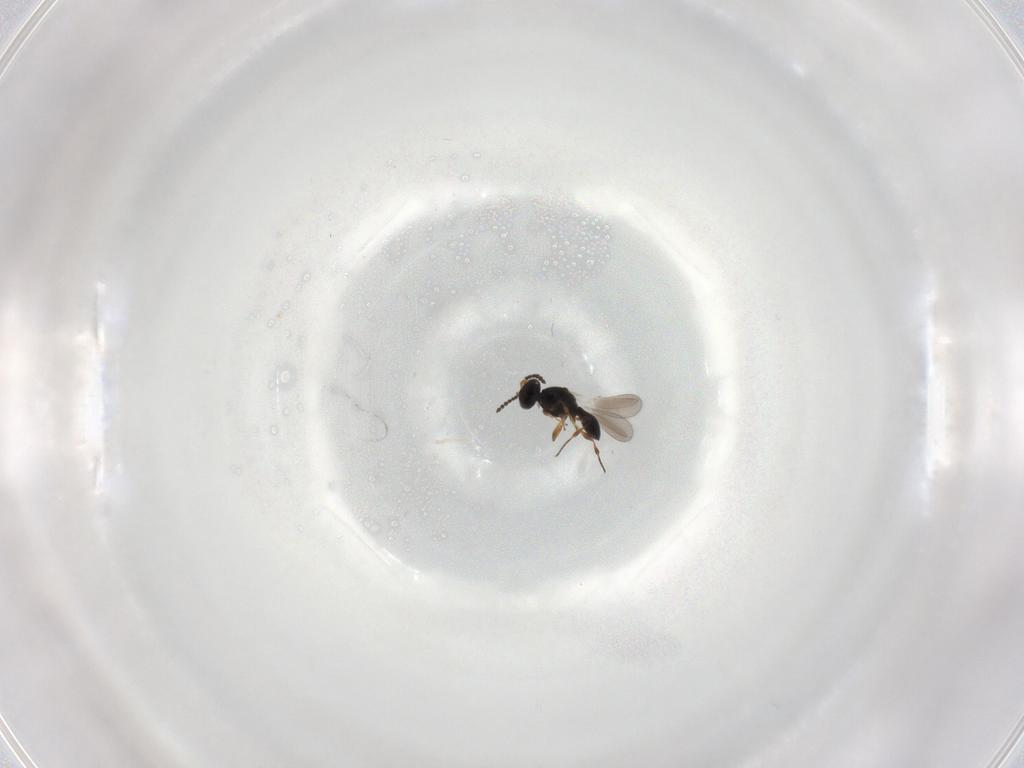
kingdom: Animalia
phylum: Arthropoda
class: Insecta
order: Hymenoptera
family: Platygastridae
